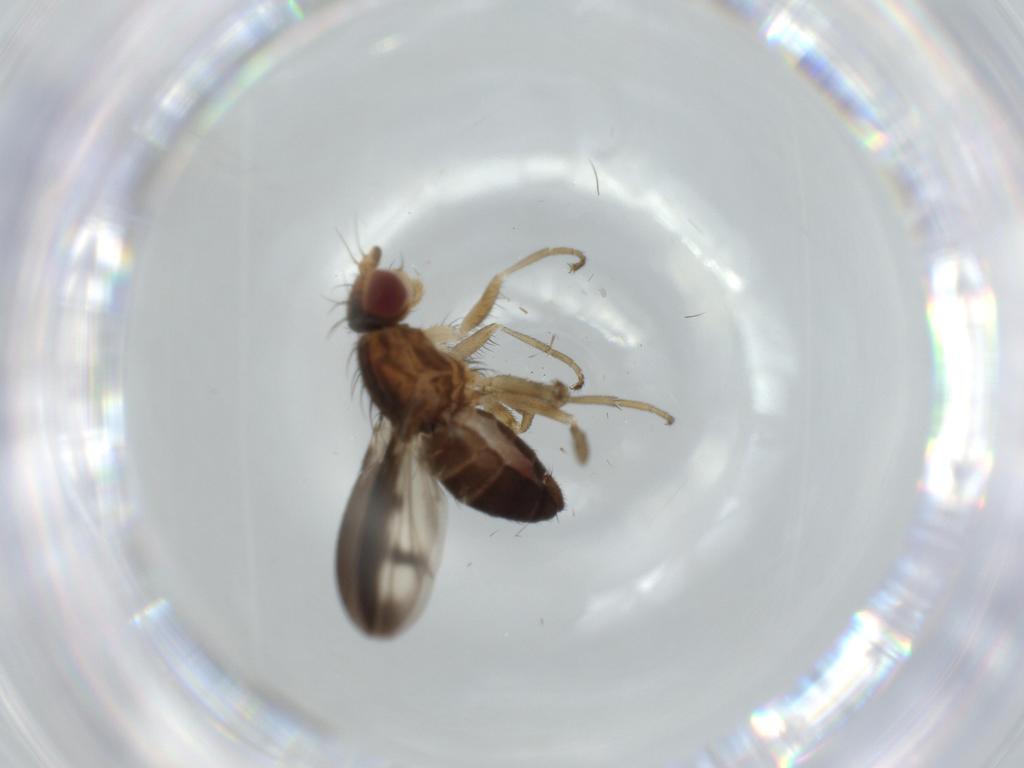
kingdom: Animalia
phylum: Arthropoda
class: Insecta
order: Diptera
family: Heleomyzidae
